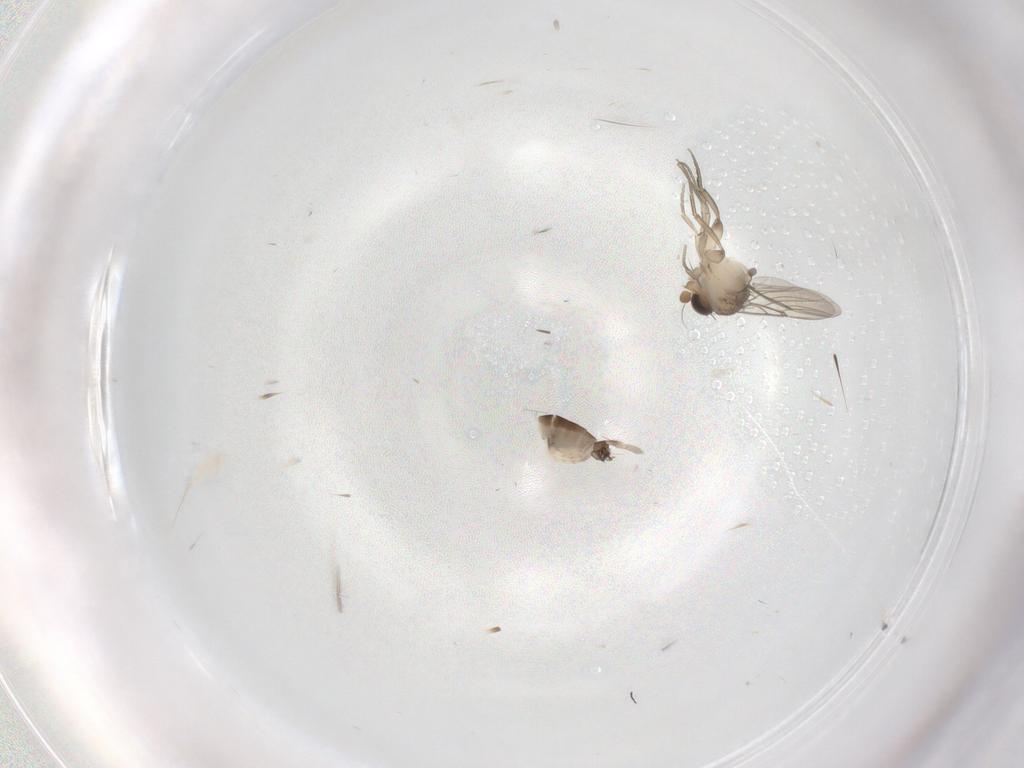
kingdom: Animalia
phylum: Arthropoda
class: Insecta
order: Diptera
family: Phoridae
